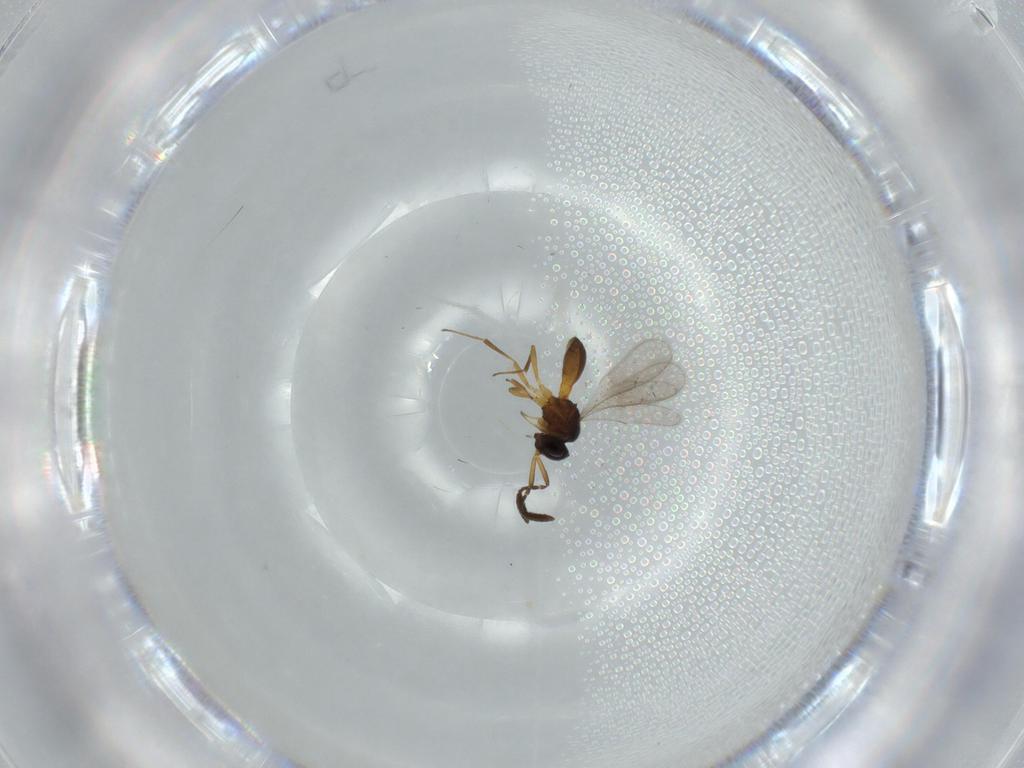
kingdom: Animalia
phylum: Arthropoda
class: Insecta
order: Hymenoptera
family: Scelionidae
